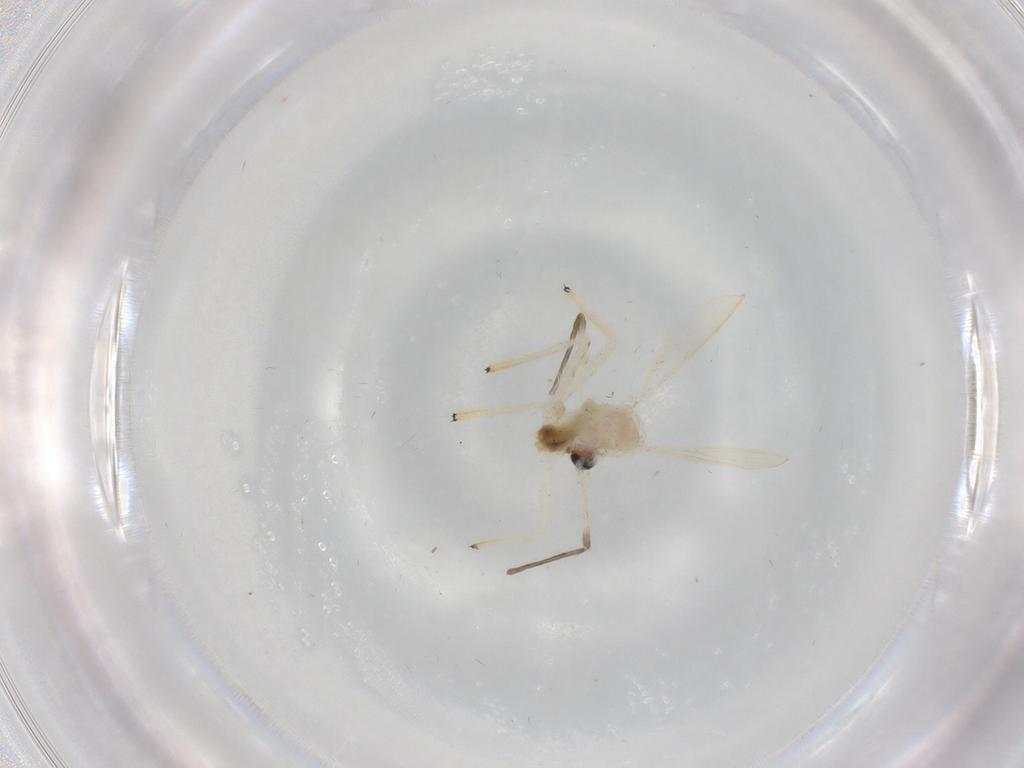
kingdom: Animalia
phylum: Arthropoda
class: Insecta
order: Diptera
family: Chironomidae
